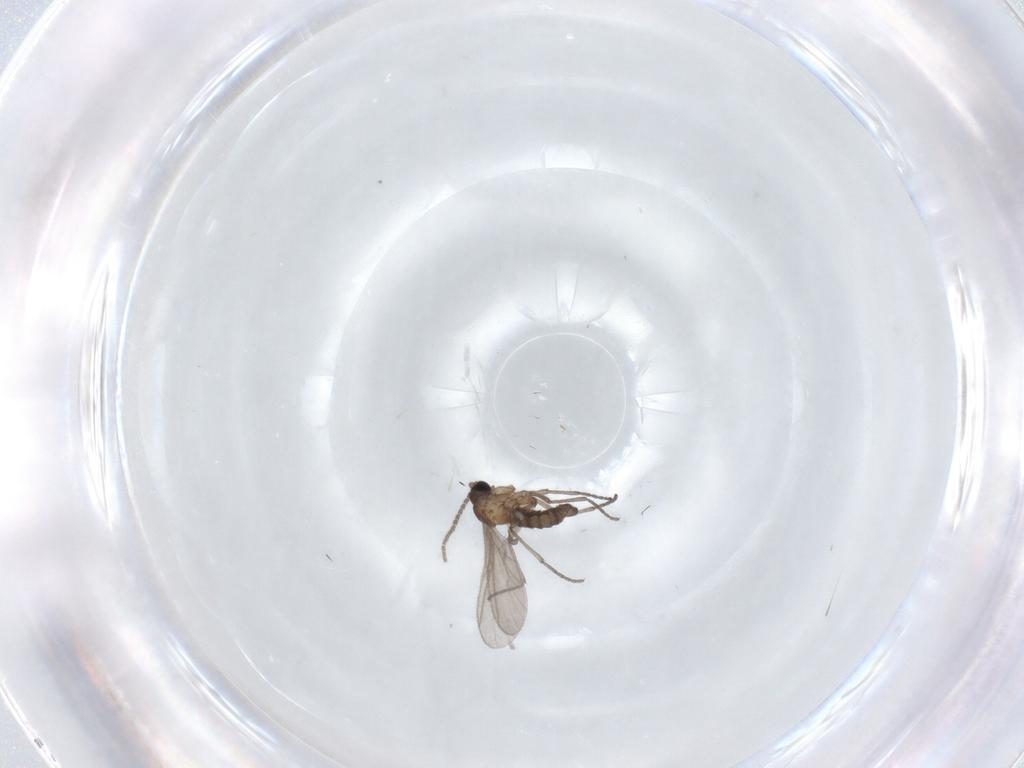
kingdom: Animalia
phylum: Arthropoda
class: Insecta
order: Diptera
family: Sciaridae
